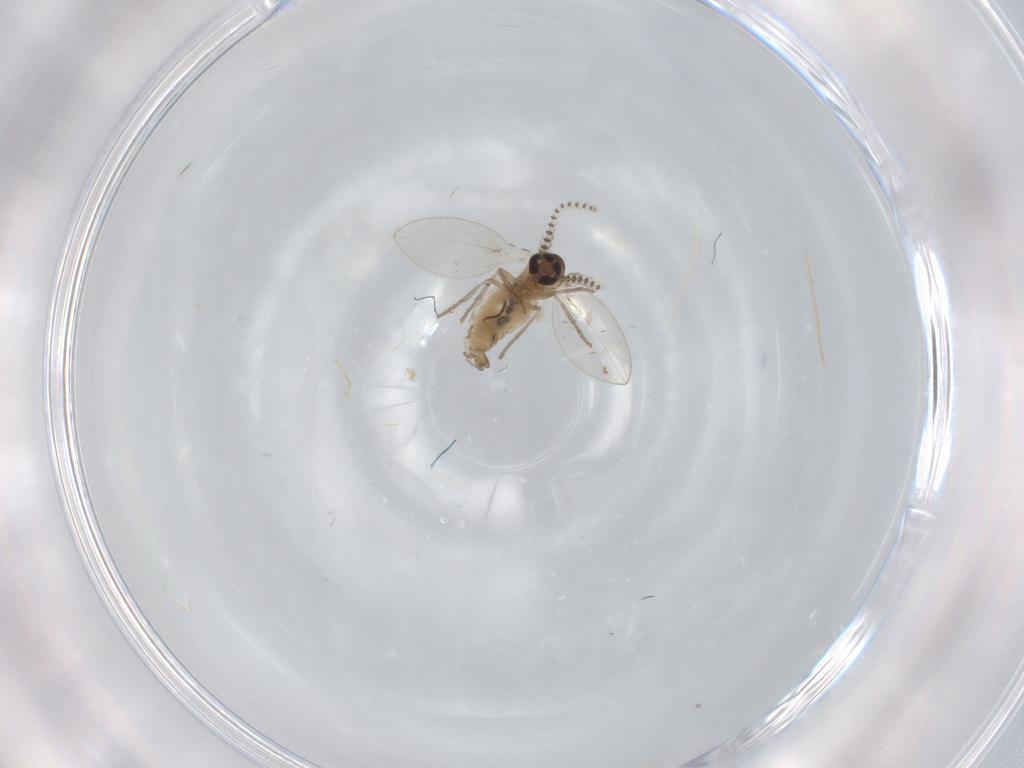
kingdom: Animalia
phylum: Arthropoda
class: Insecta
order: Diptera
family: Psychodidae
